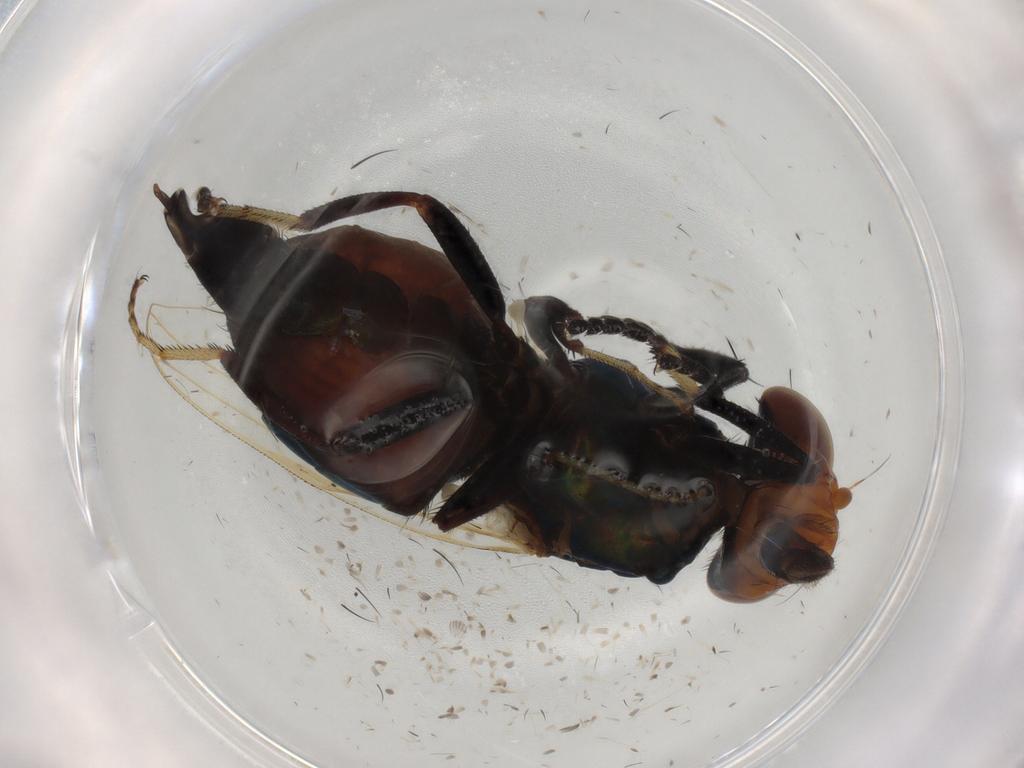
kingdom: Animalia
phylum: Arthropoda
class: Insecta
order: Diptera
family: Ulidiidae
